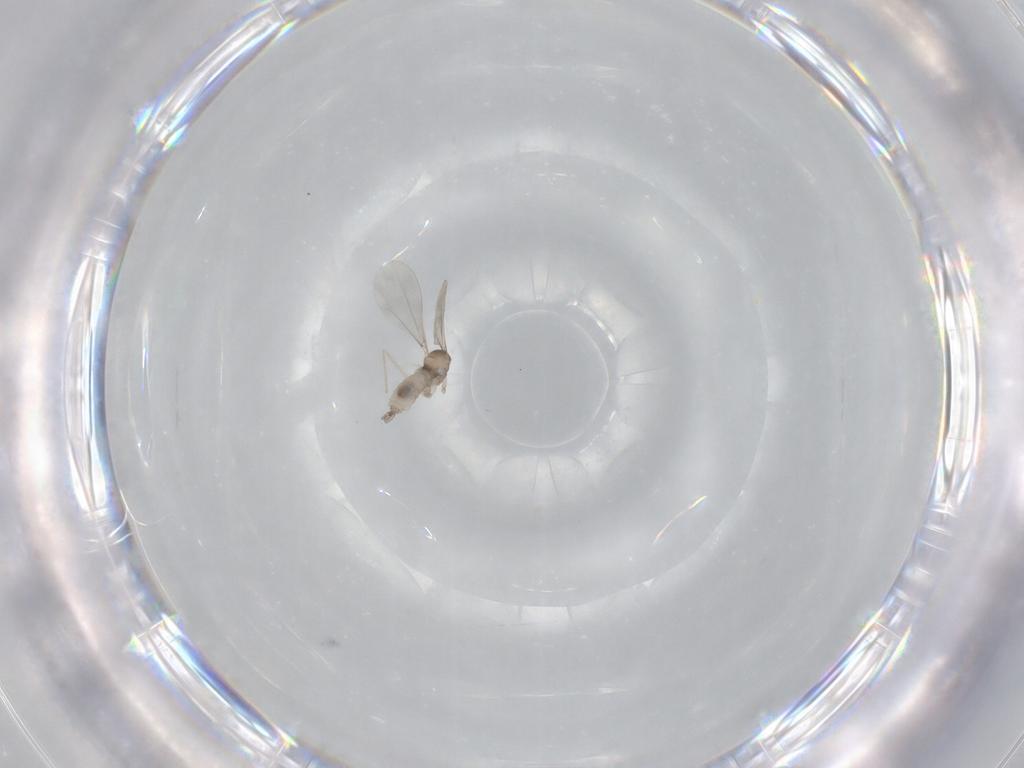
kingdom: Animalia
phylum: Arthropoda
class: Insecta
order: Diptera
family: Cecidomyiidae
